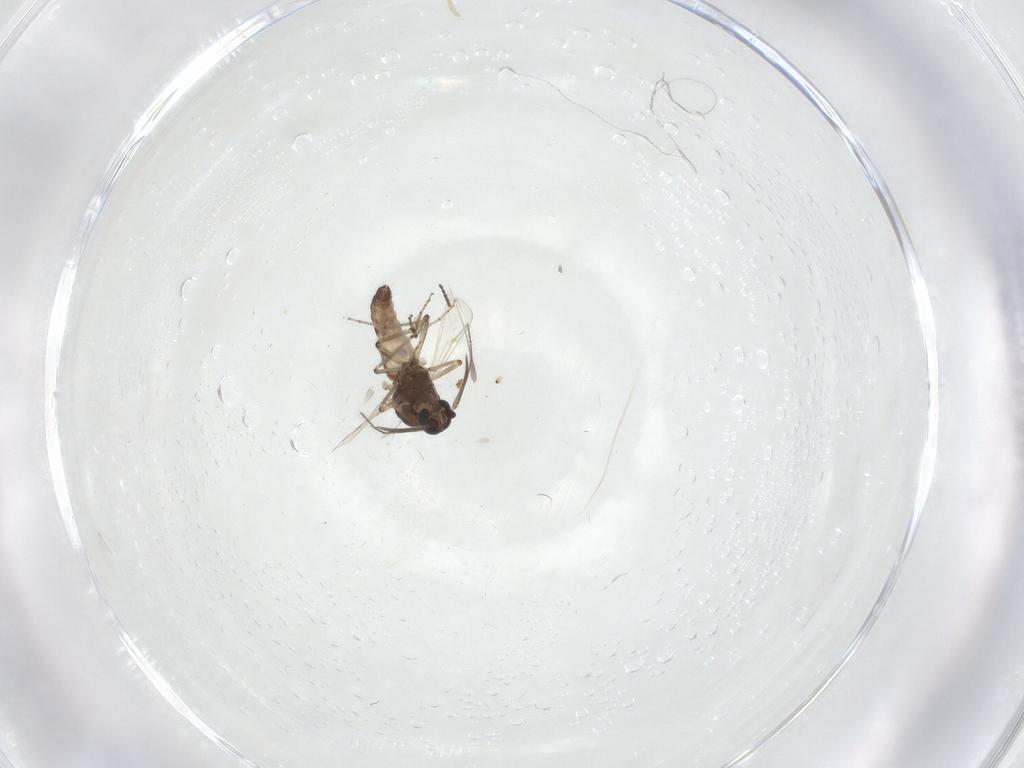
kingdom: Animalia
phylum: Arthropoda
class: Insecta
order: Diptera
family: Ceratopogonidae
